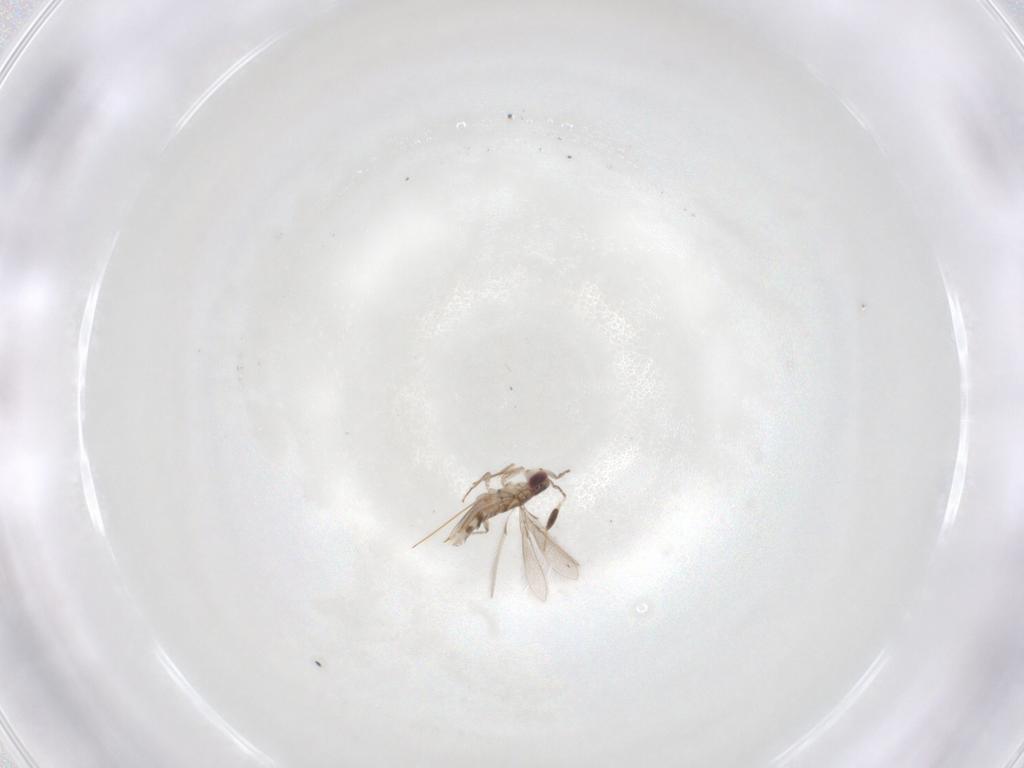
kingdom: Animalia
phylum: Arthropoda
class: Insecta
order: Hymenoptera
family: Mymaridae
